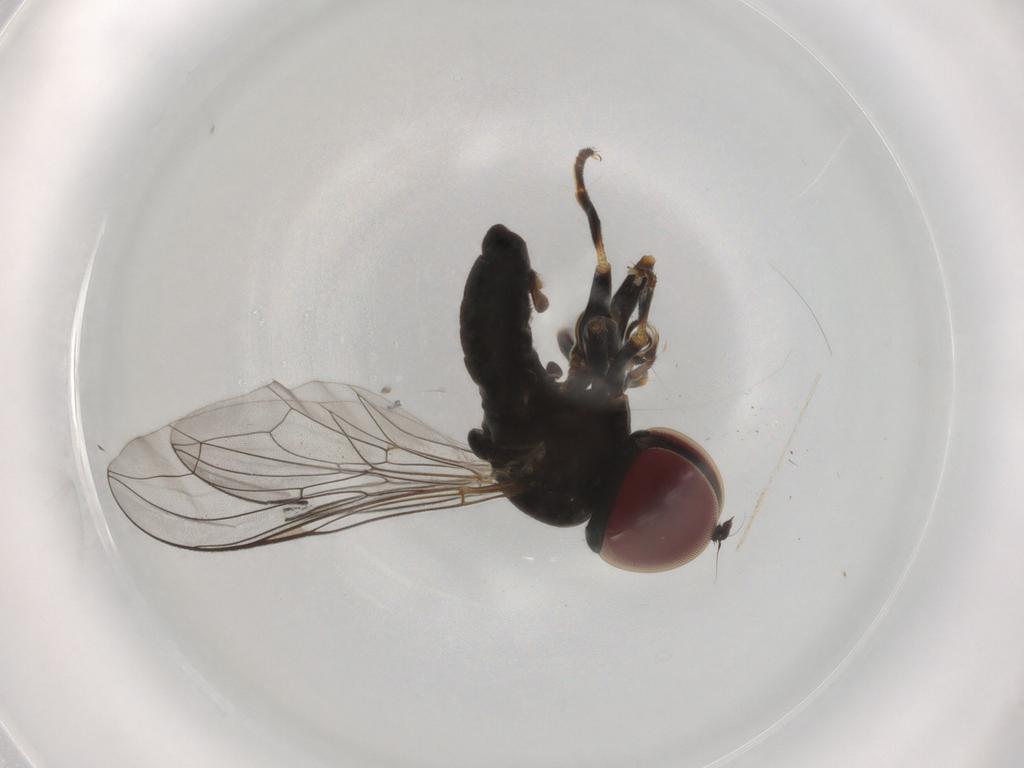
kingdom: Animalia
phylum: Arthropoda
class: Insecta
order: Diptera
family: Pipunculidae
